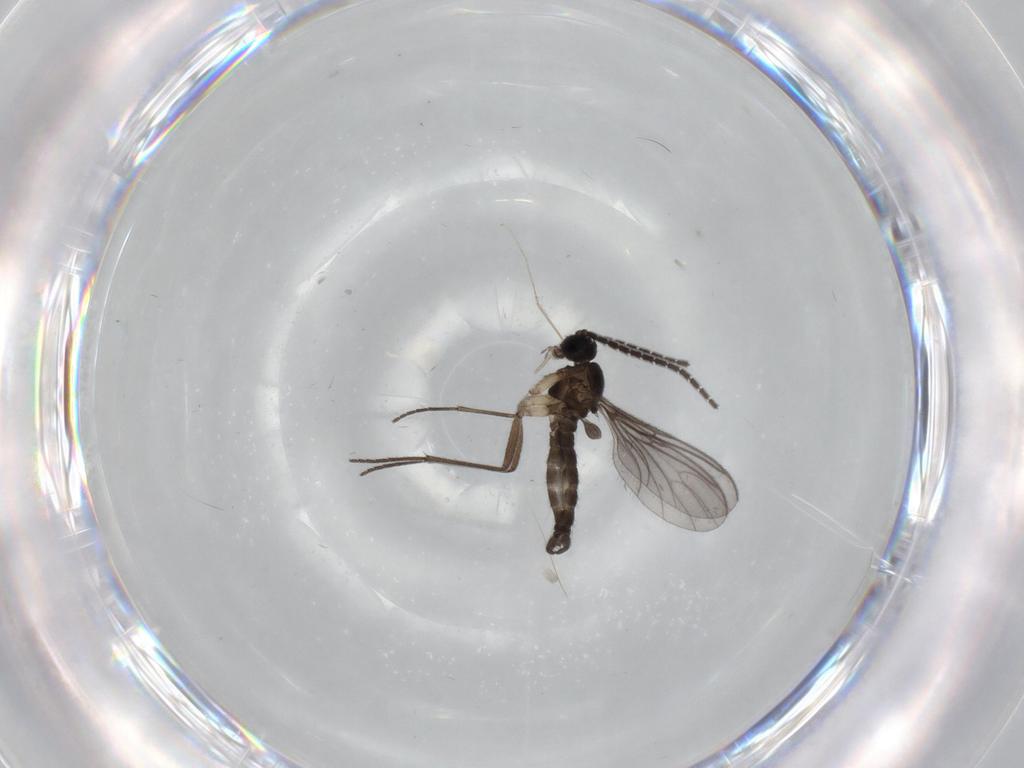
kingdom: Animalia
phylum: Arthropoda
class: Insecta
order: Diptera
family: Sciaridae
